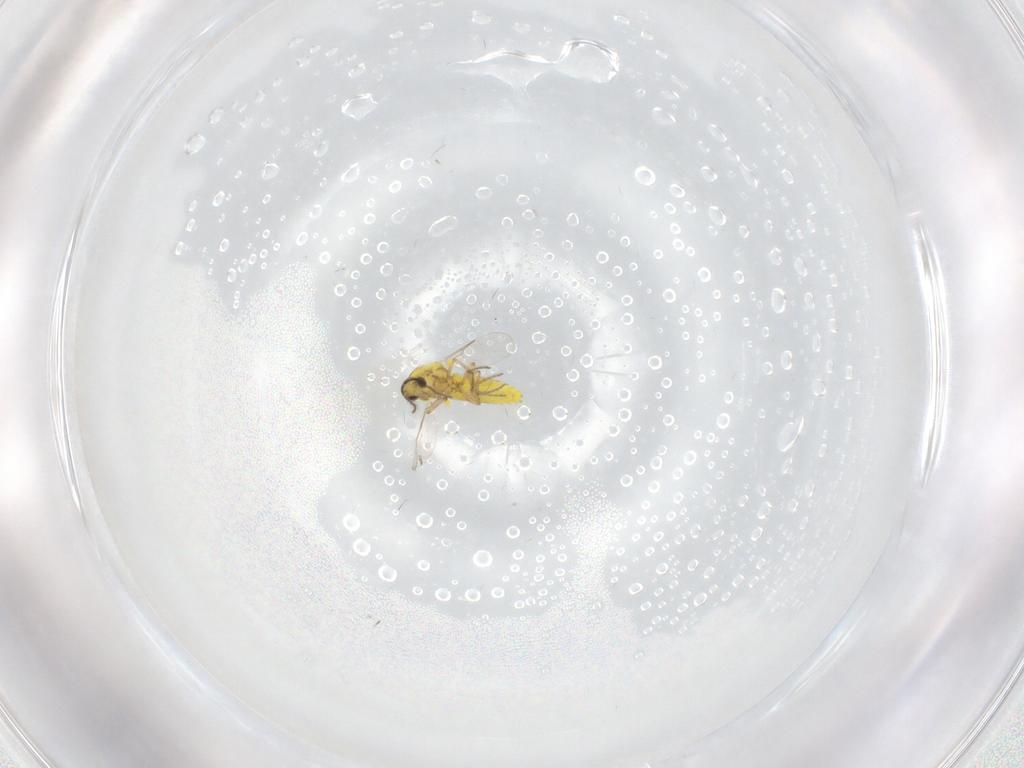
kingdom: Animalia
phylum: Arthropoda
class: Insecta
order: Diptera
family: Ceratopogonidae
